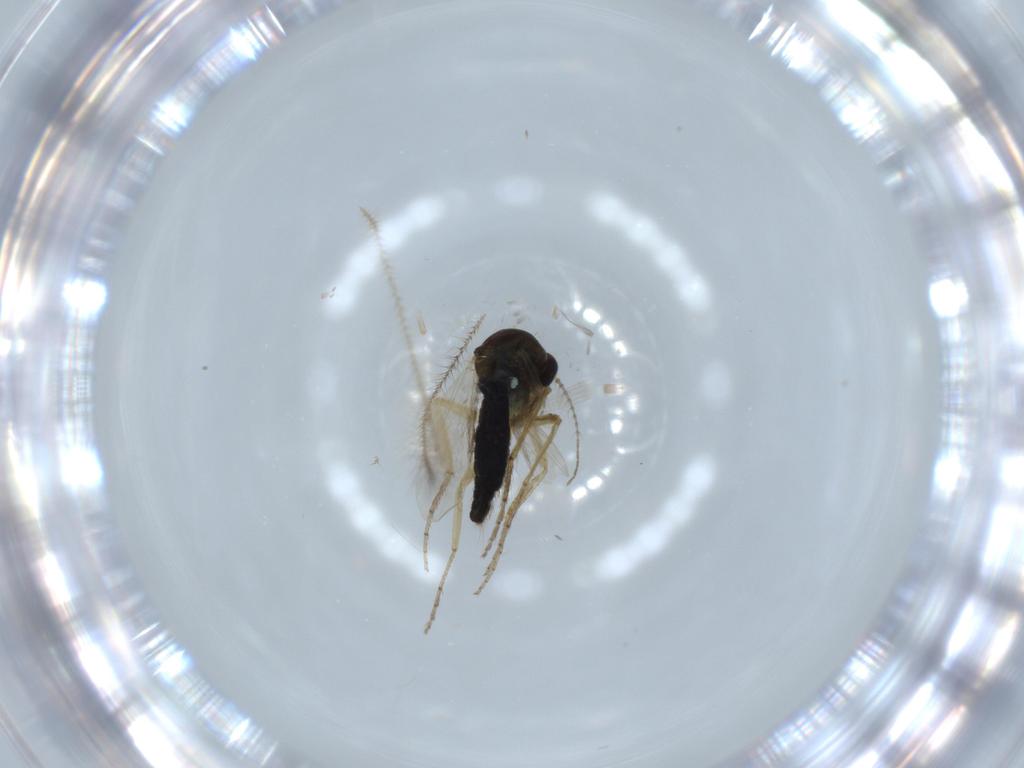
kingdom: Animalia
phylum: Arthropoda
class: Insecta
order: Diptera
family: Ceratopogonidae
